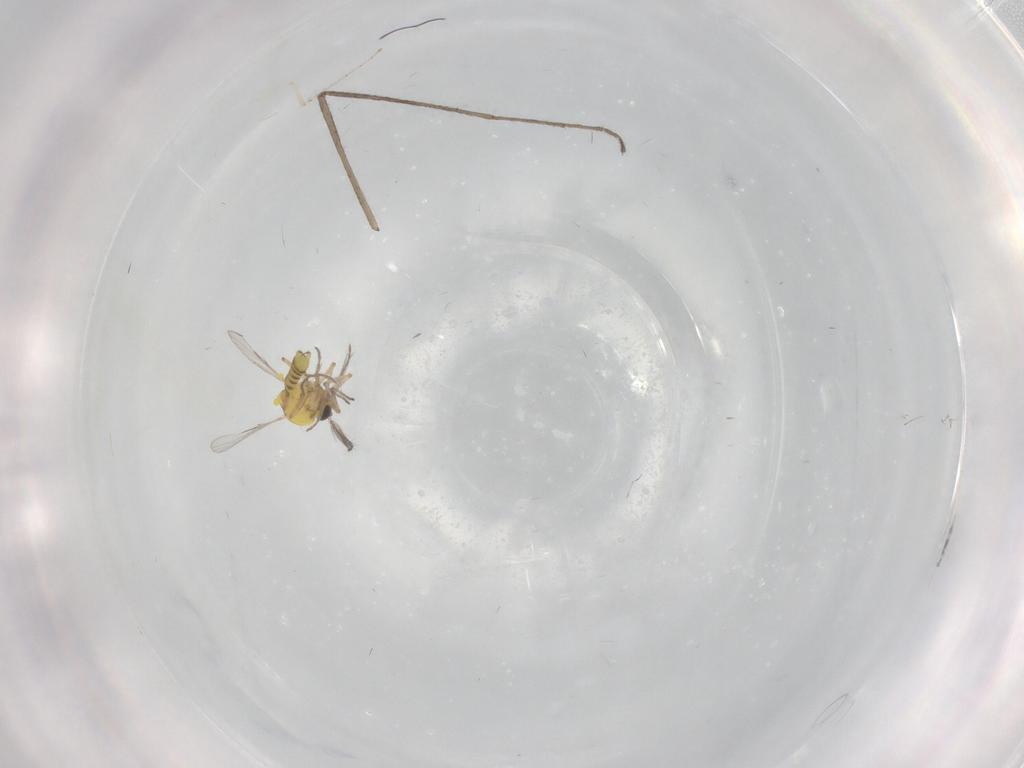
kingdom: Animalia
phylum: Arthropoda
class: Insecta
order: Diptera
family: Ceratopogonidae
